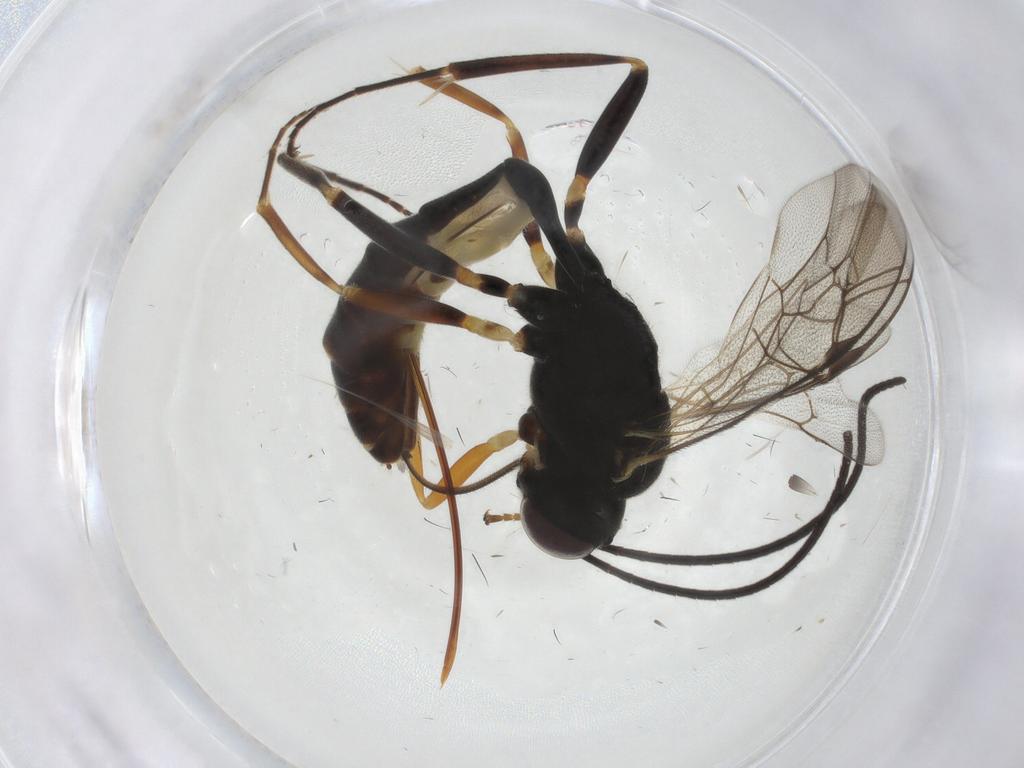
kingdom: Animalia
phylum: Arthropoda
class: Insecta
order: Hymenoptera
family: Ichneumonidae
